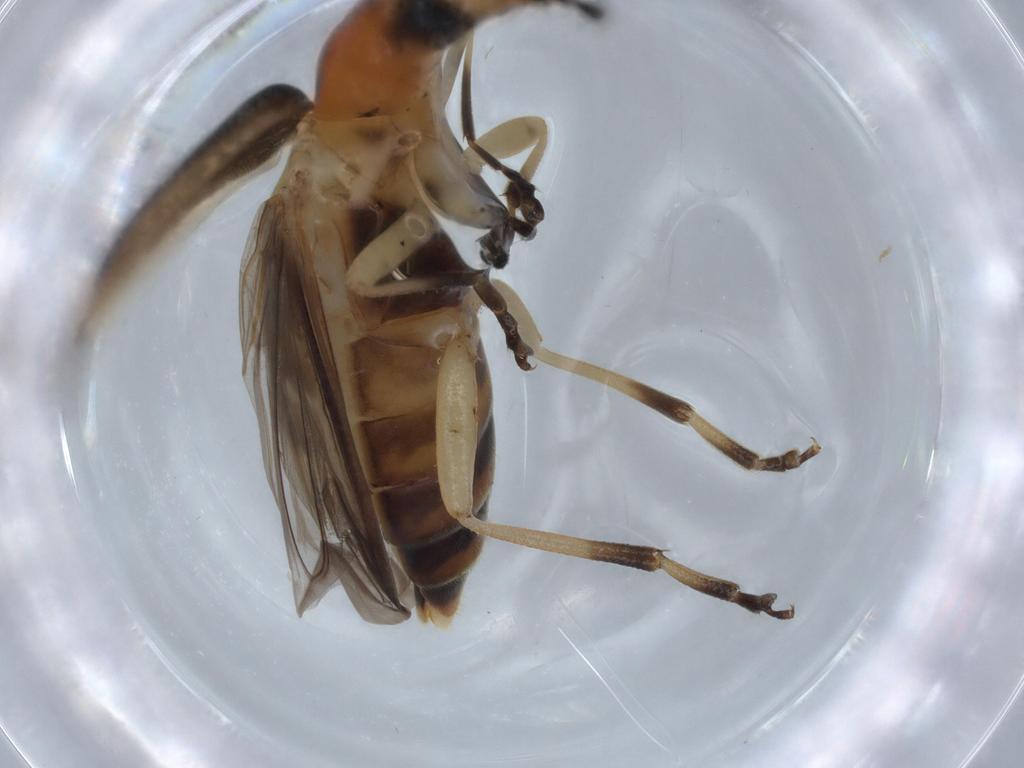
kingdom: Animalia
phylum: Arthropoda
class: Insecta
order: Coleoptera
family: Oedemeridae
